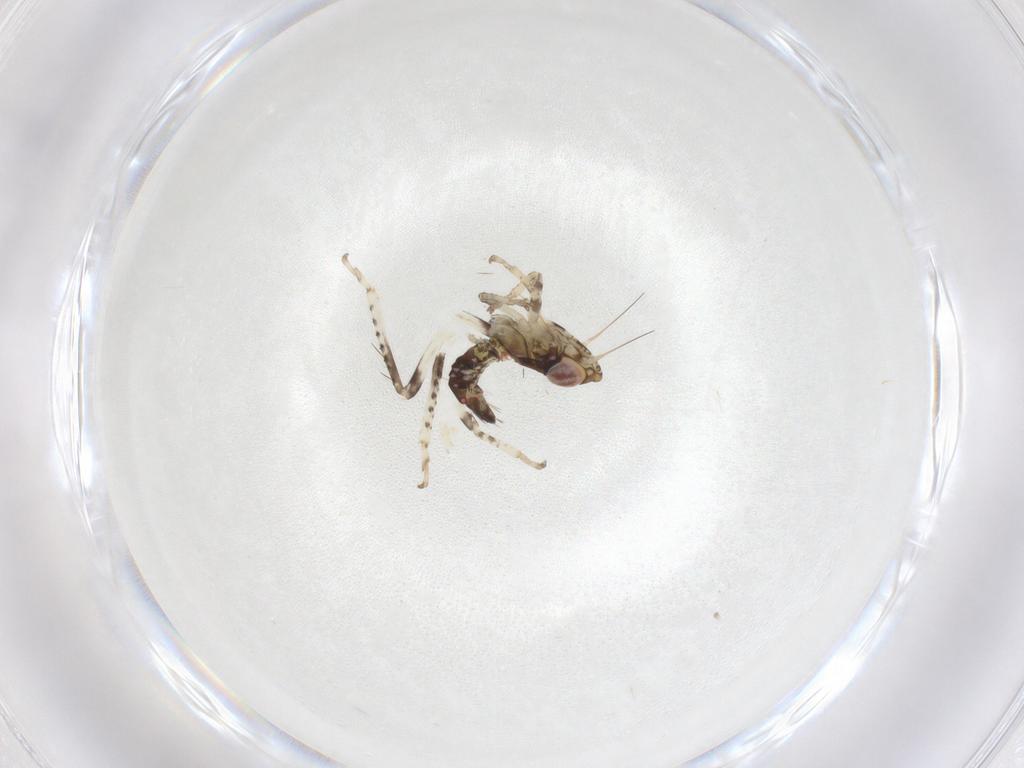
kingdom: Animalia
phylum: Arthropoda
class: Insecta
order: Hemiptera
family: Cicadellidae
